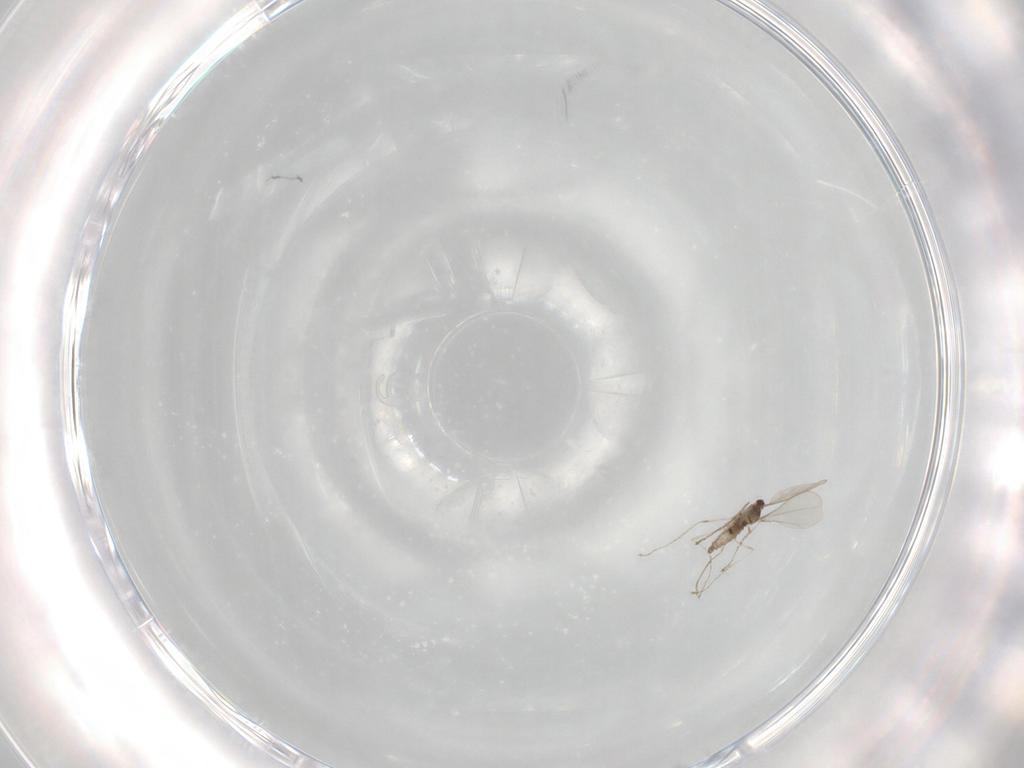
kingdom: Animalia
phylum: Arthropoda
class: Insecta
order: Diptera
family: Cecidomyiidae
